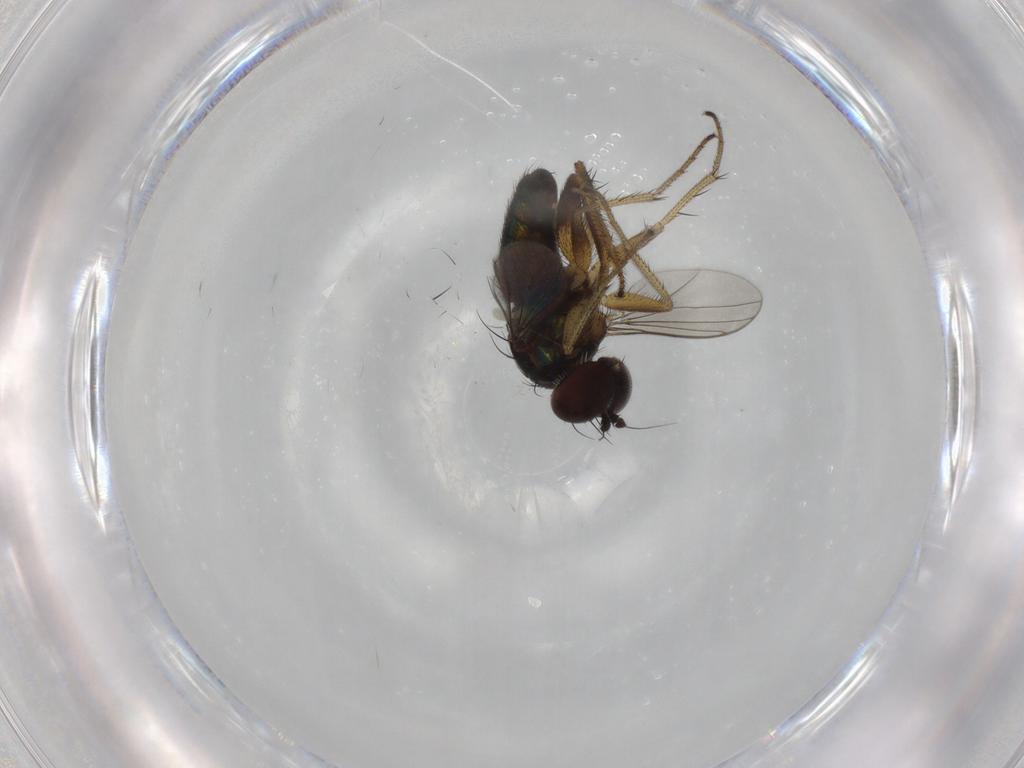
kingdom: Animalia
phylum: Arthropoda
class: Insecta
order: Diptera
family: Dolichopodidae
